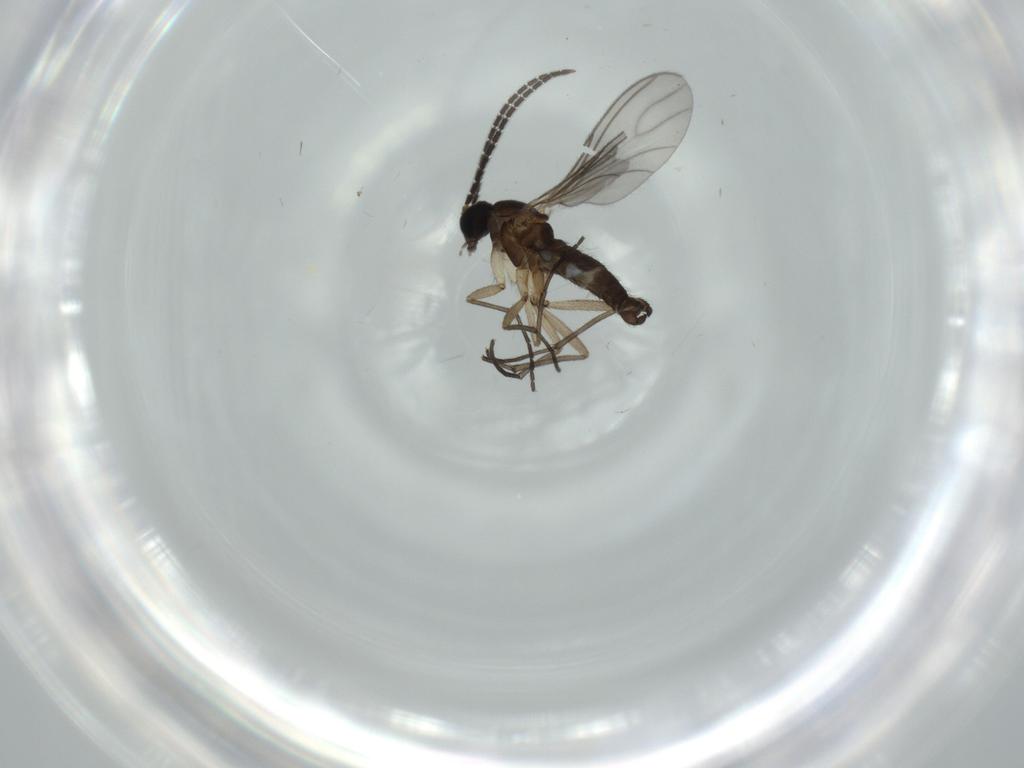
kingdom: Animalia
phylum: Arthropoda
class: Insecta
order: Diptera
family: Sciaridae
